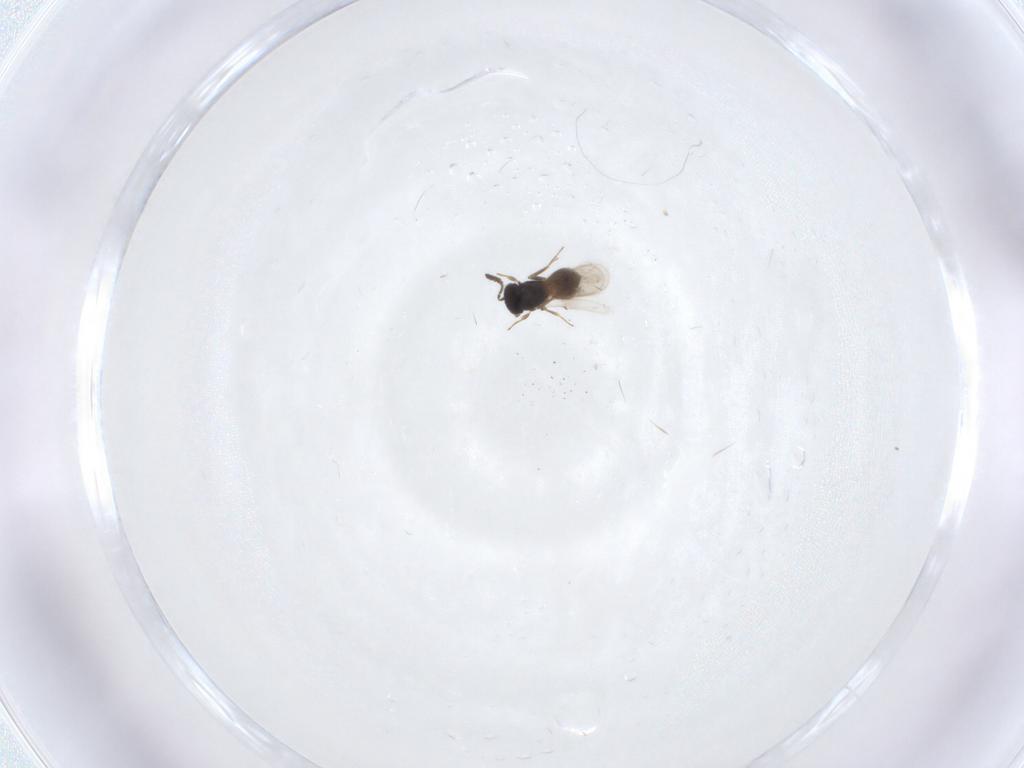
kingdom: Animalia
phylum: Arthropoda
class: Insecta
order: Hymenoptera
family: Scelionidae
